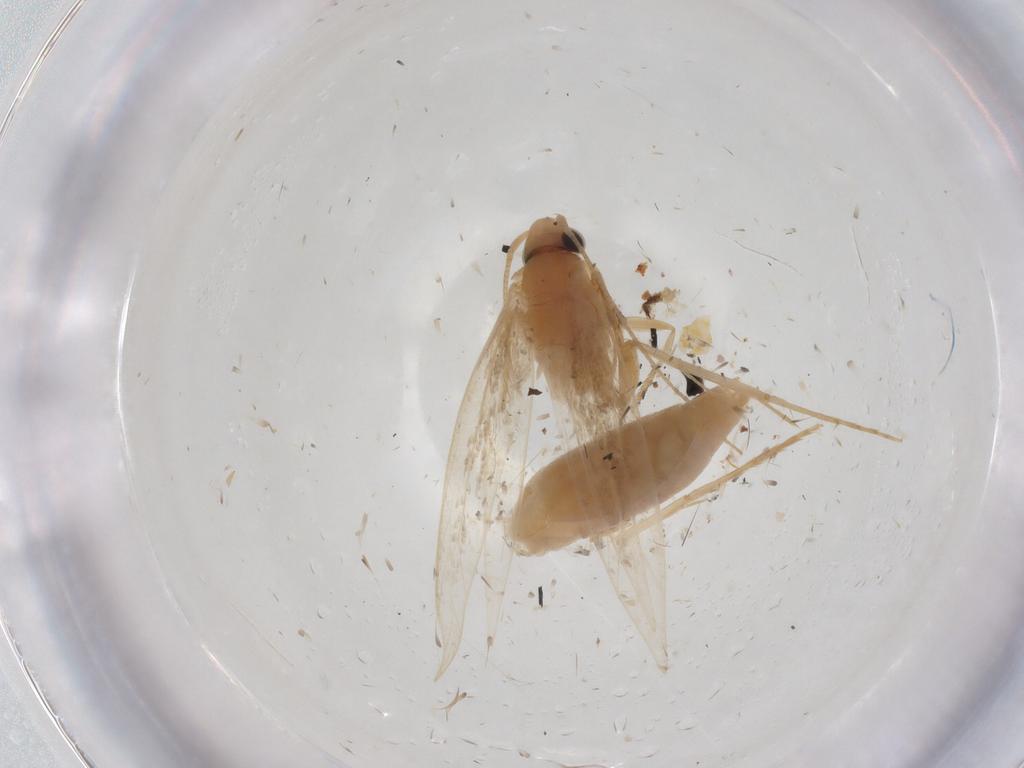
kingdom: Animalia
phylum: Arthropoda
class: Insecta
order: Lepidoptera
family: Tineidae
